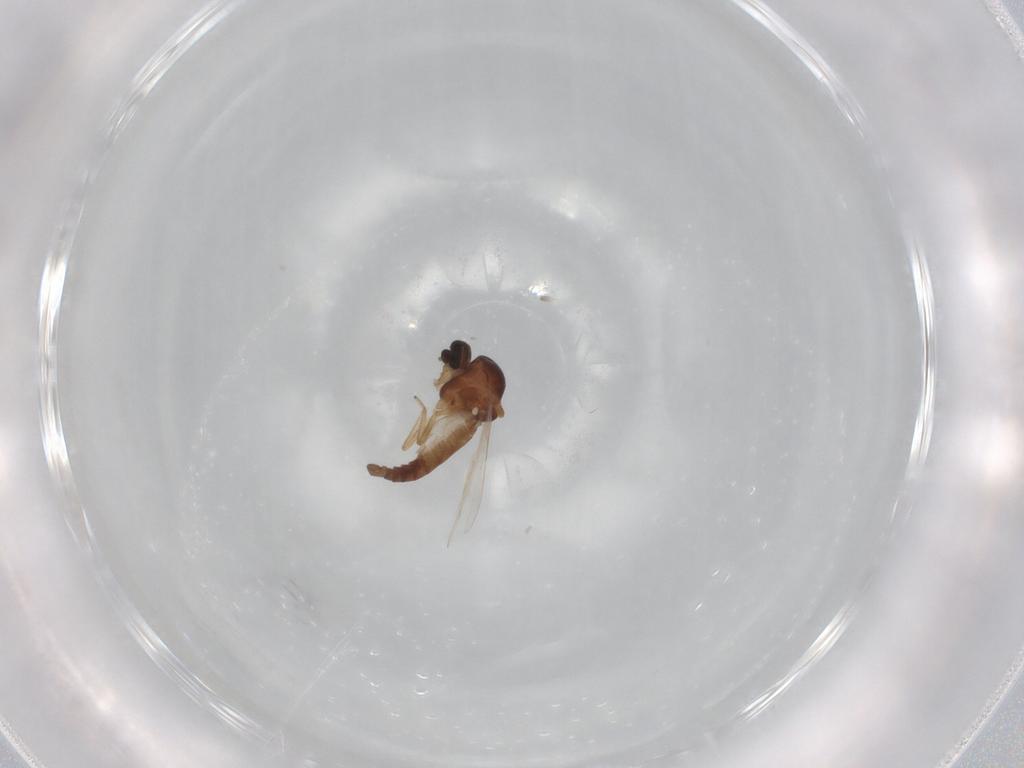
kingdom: Animalia
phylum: Arthropoda
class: Insecta
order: Diptera
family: Ceratopogonidae
